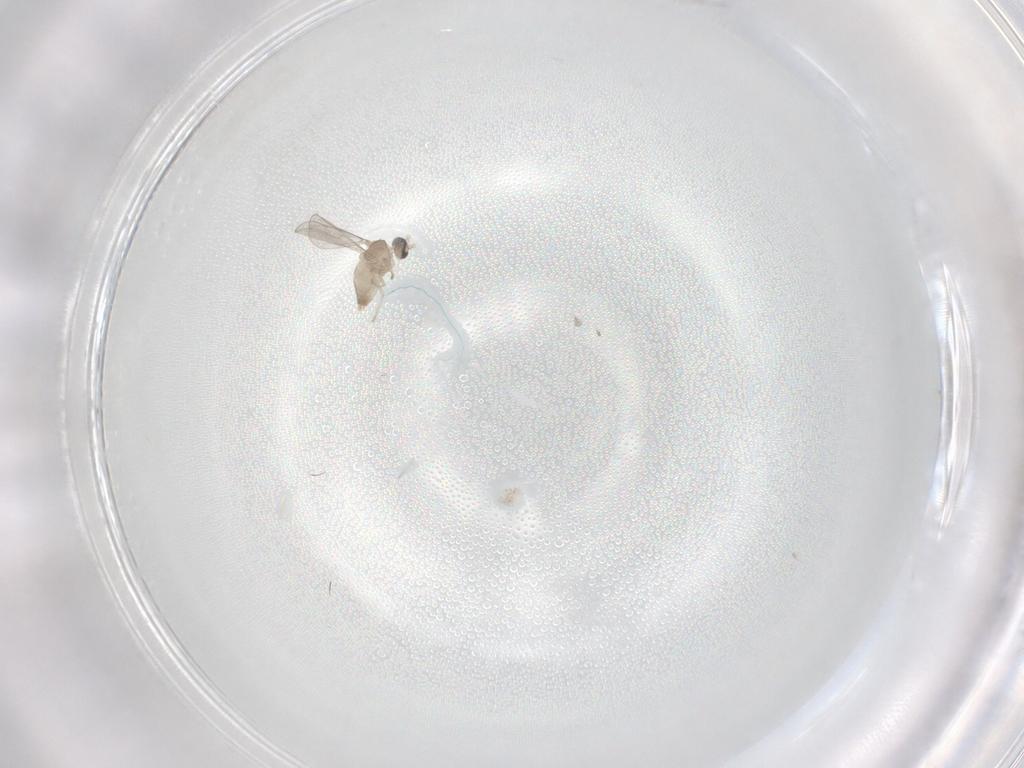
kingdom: Animalia
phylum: Arthropoda
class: Insecta
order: Diptera
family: Cecidomyiidae
